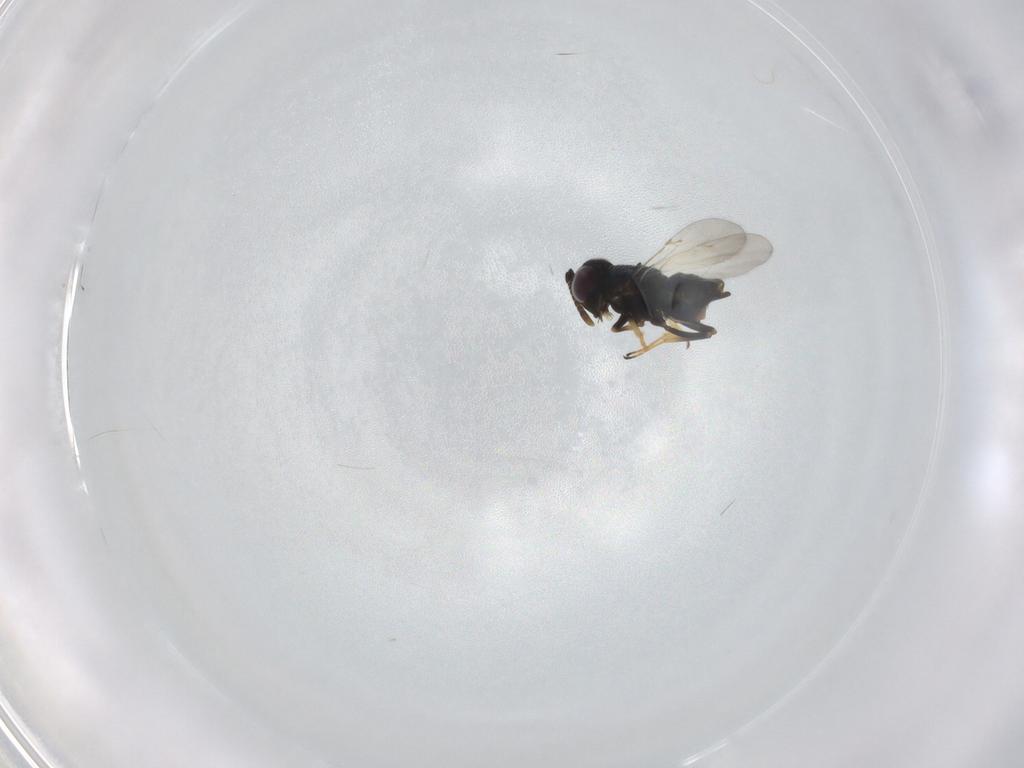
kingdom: Animalia
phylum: Arthropoda
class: Insecta
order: Hymenoptera
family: Encyrtidae
